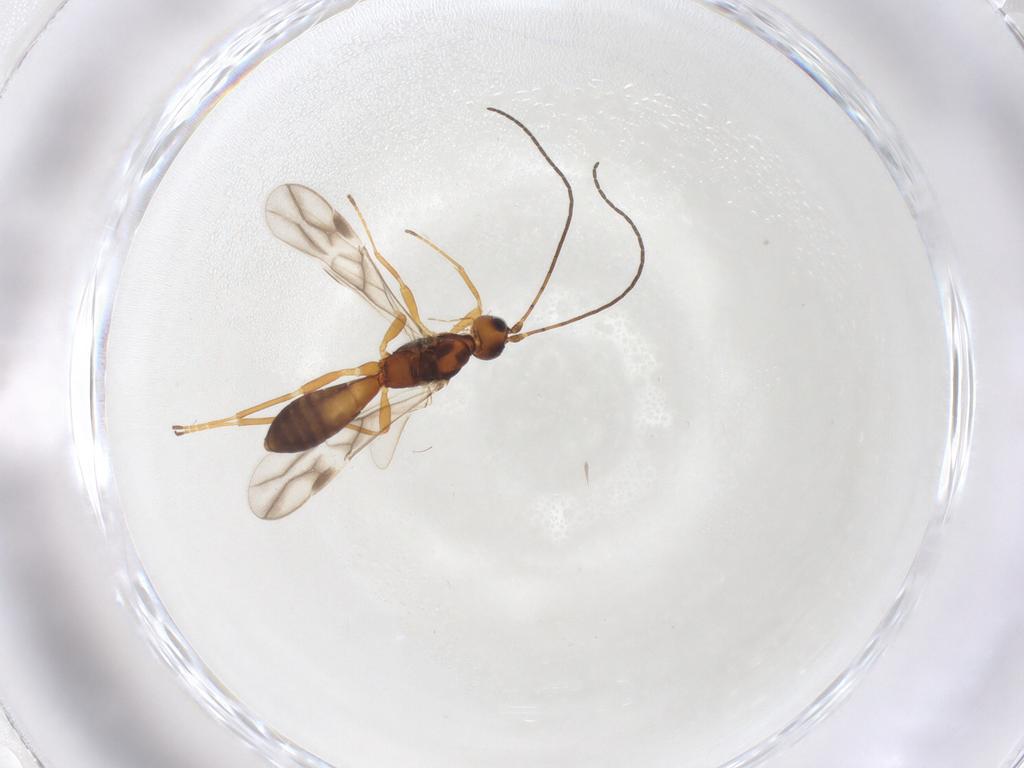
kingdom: Animalia
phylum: Arthropoda
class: Insecta
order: Hymenoptera
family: Braconidae
